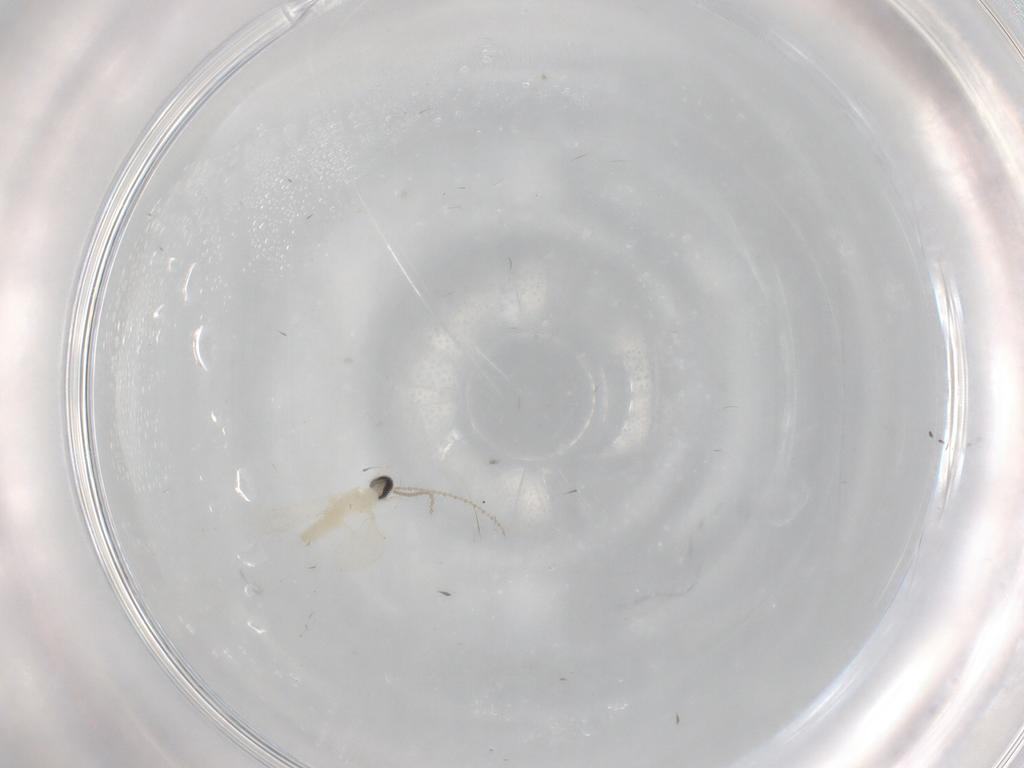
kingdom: Animalia
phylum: Arthropoda
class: Insecta
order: Diptera
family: Cecidomyiidae
